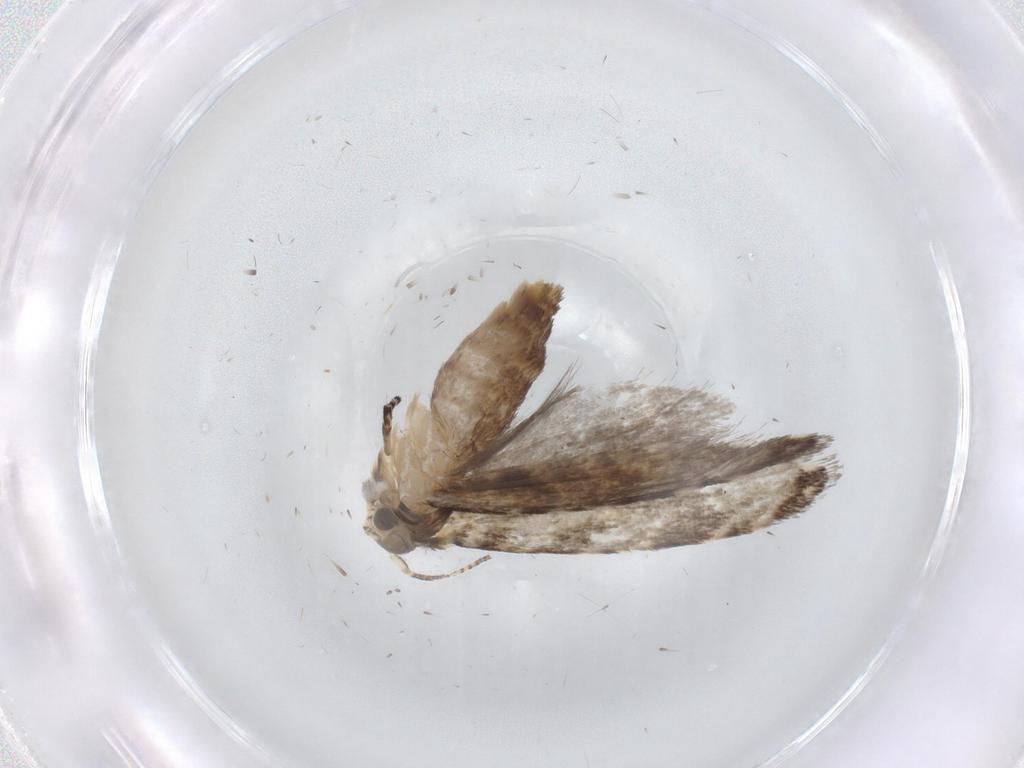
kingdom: Animalia
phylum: Arthropoda
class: Insecta
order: Lepidoptera
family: Tineidae
